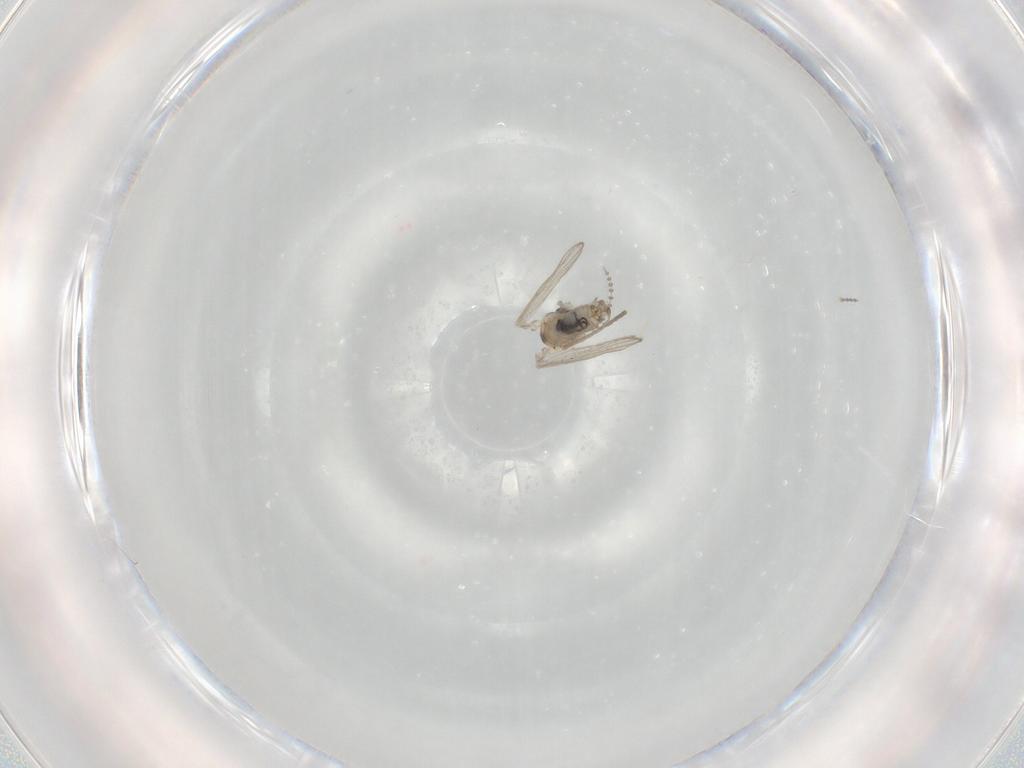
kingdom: Animalia
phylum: Arthropoda
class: Insecta
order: Diptera
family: Psychodidae
